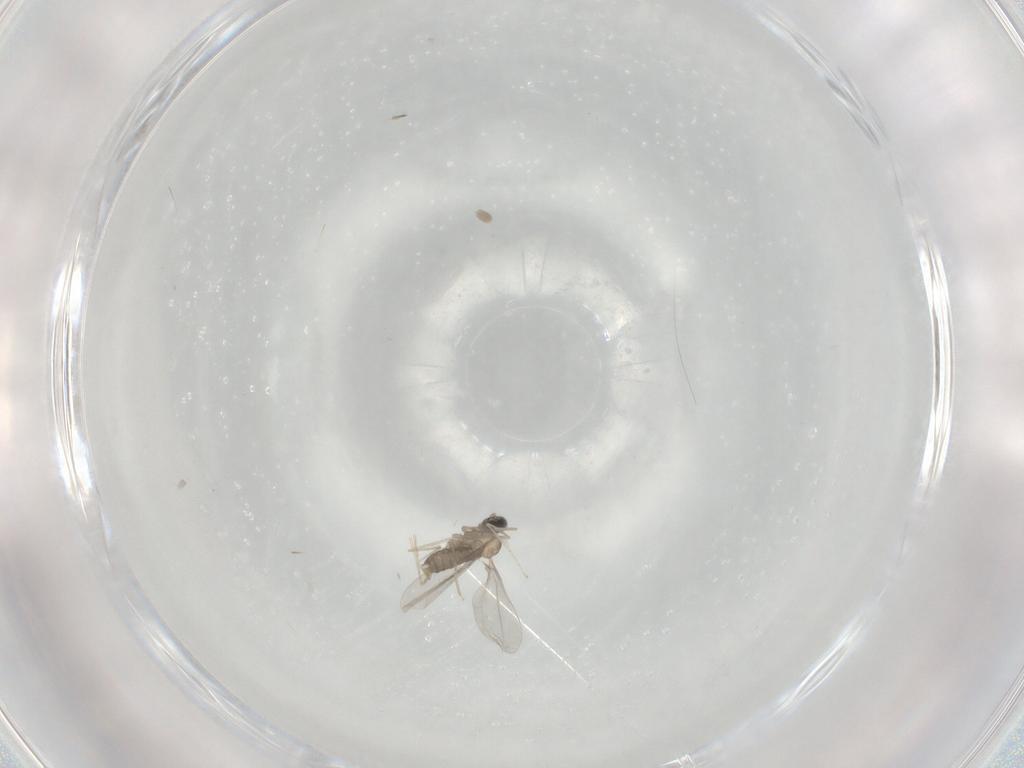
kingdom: Animalia
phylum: Arthropoda
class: Insecta
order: Diptera
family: Cecidomyiidae
